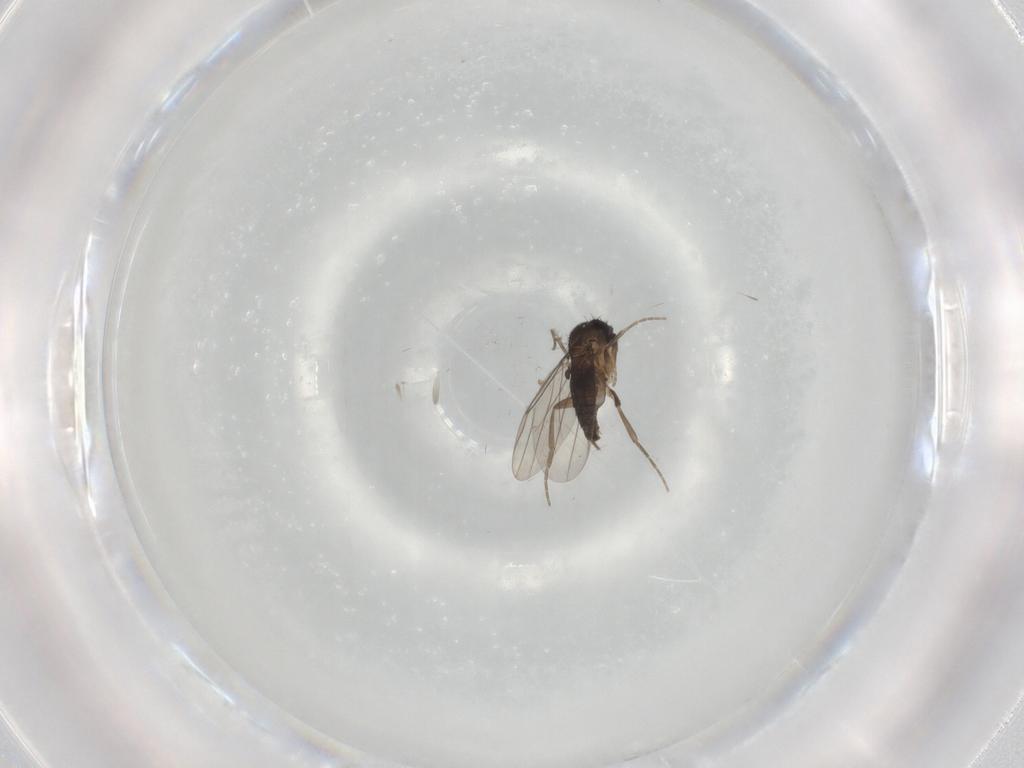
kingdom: Animalia
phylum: Arthropoda
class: Insecta
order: Diptera
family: Phoridae
